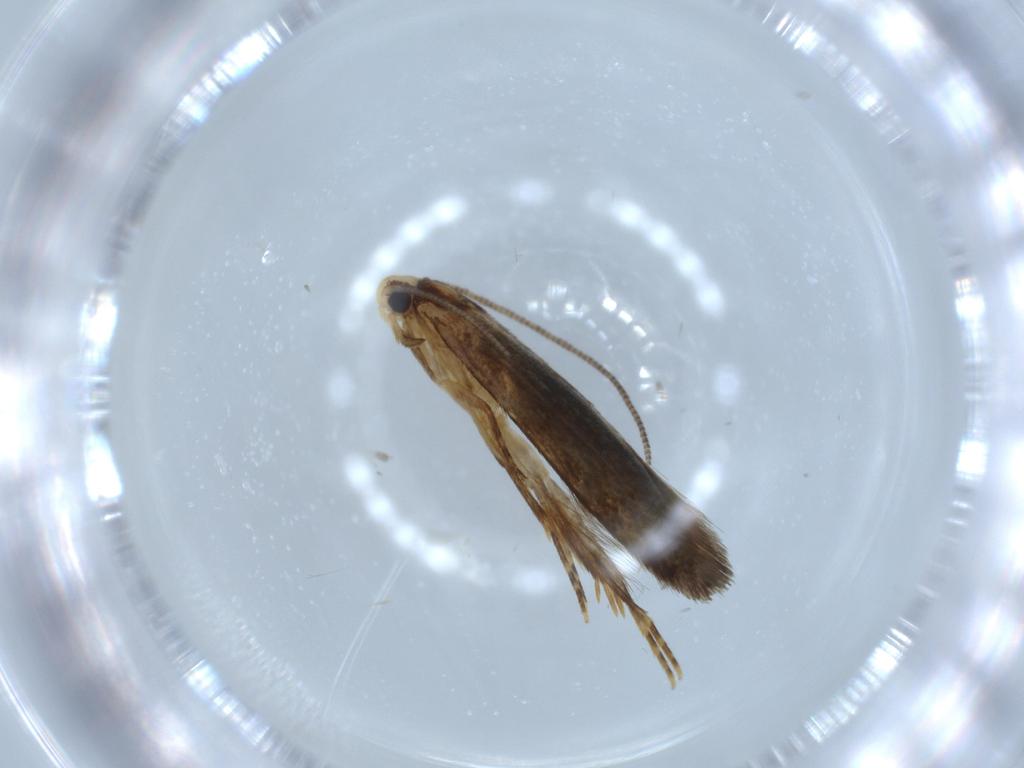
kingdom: Animalia
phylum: Arthropoda
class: Insecta
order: Lepidoptera
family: Tineidae
